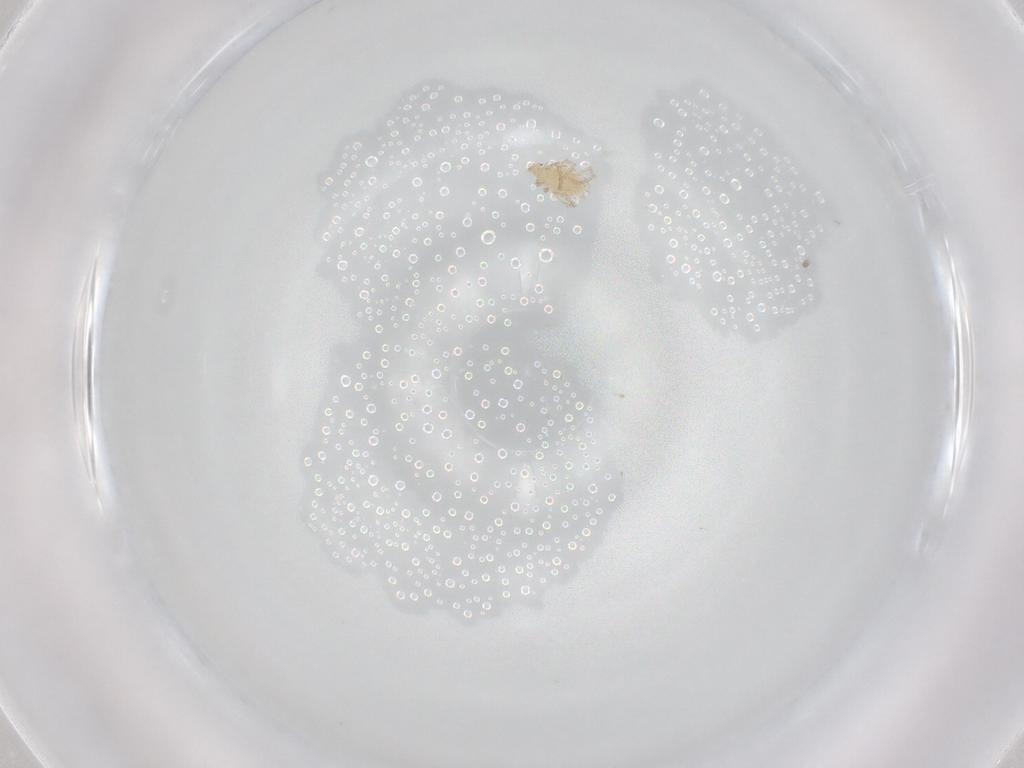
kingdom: Animalia
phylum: Arthropoda
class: Arachnida
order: Trombidiformes
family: Erythraeidae
